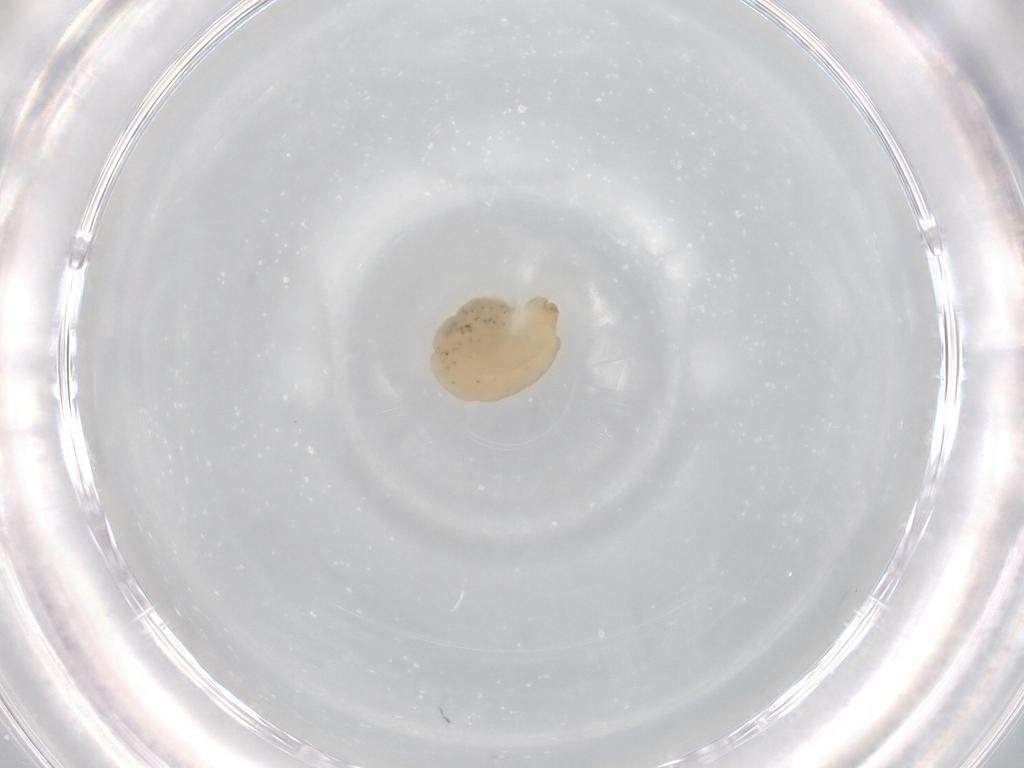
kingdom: Animalia
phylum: Arthropoda
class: Insecta
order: Hymenoptera
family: Dryinidae
